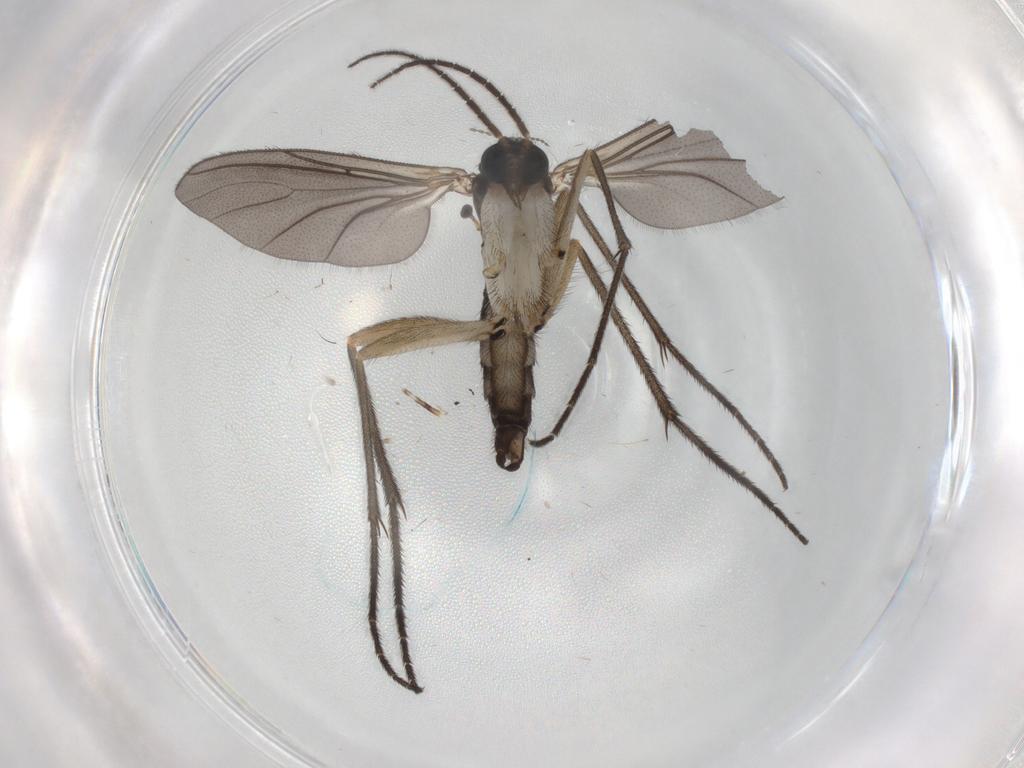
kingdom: Animalia
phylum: Arthropoda
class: Insecta
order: Diptera
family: Sciaridae
